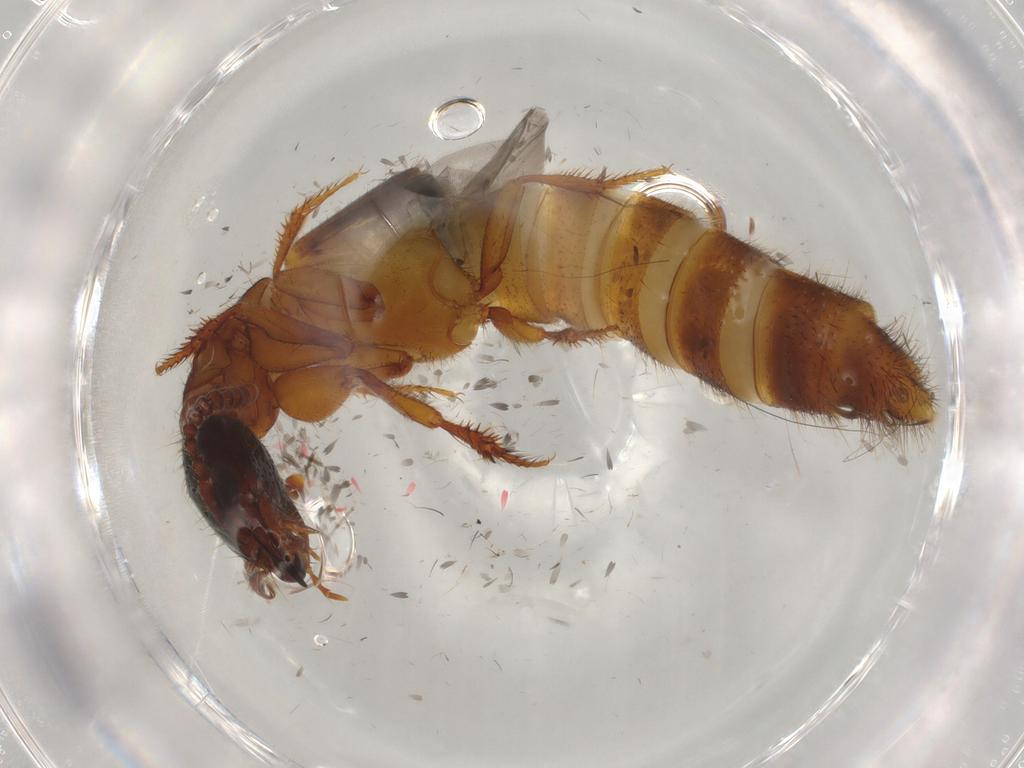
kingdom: Animalia
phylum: Arthropoda
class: Insecta
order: Coleoptera
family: Staphylinidae
